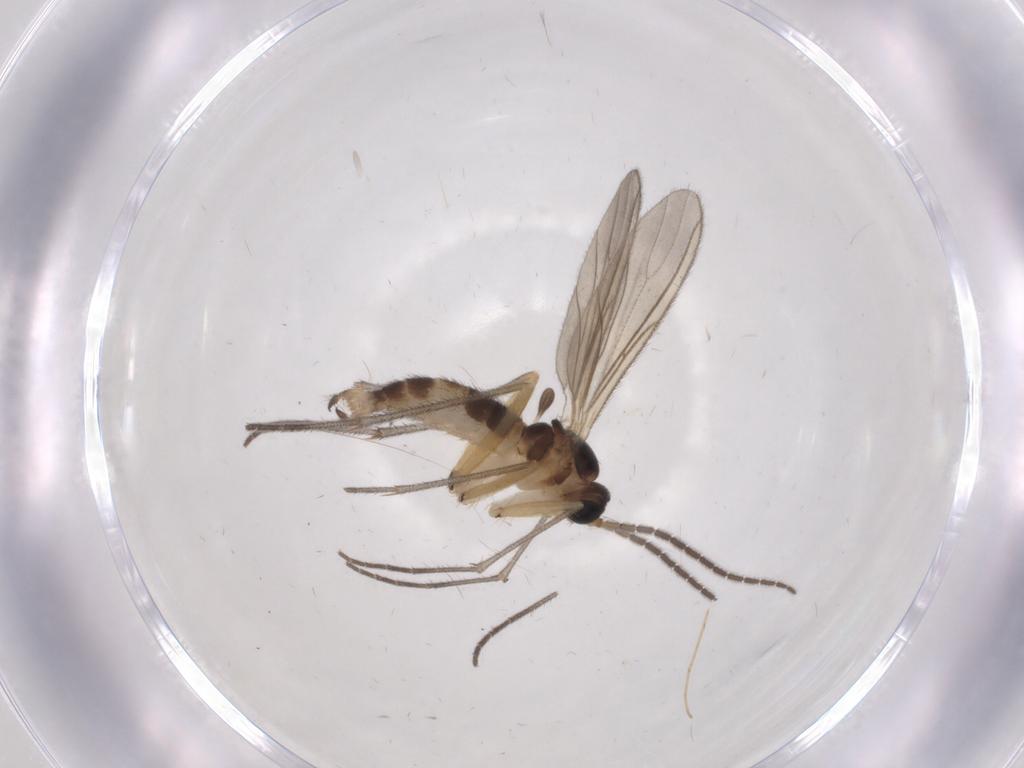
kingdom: Animalia
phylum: Arthropoda
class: Insecta
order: Diptera
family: Sciaridae
